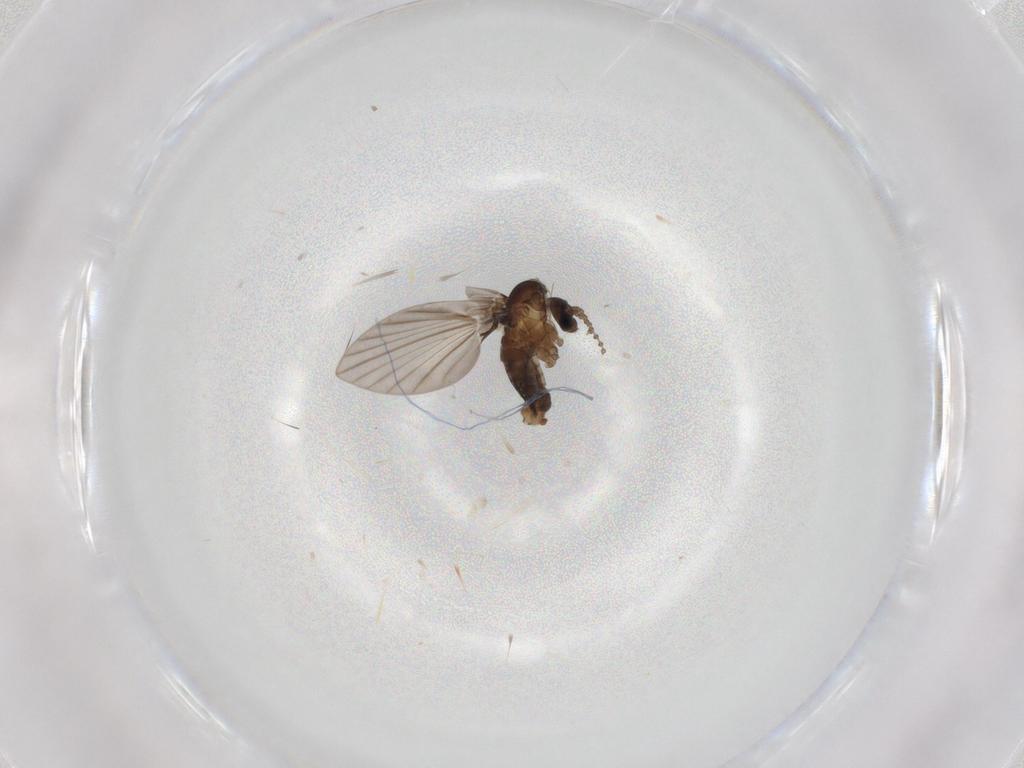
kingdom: Animalia
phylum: Arthropoda
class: Insecta
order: Diptera
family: Psychodidae
